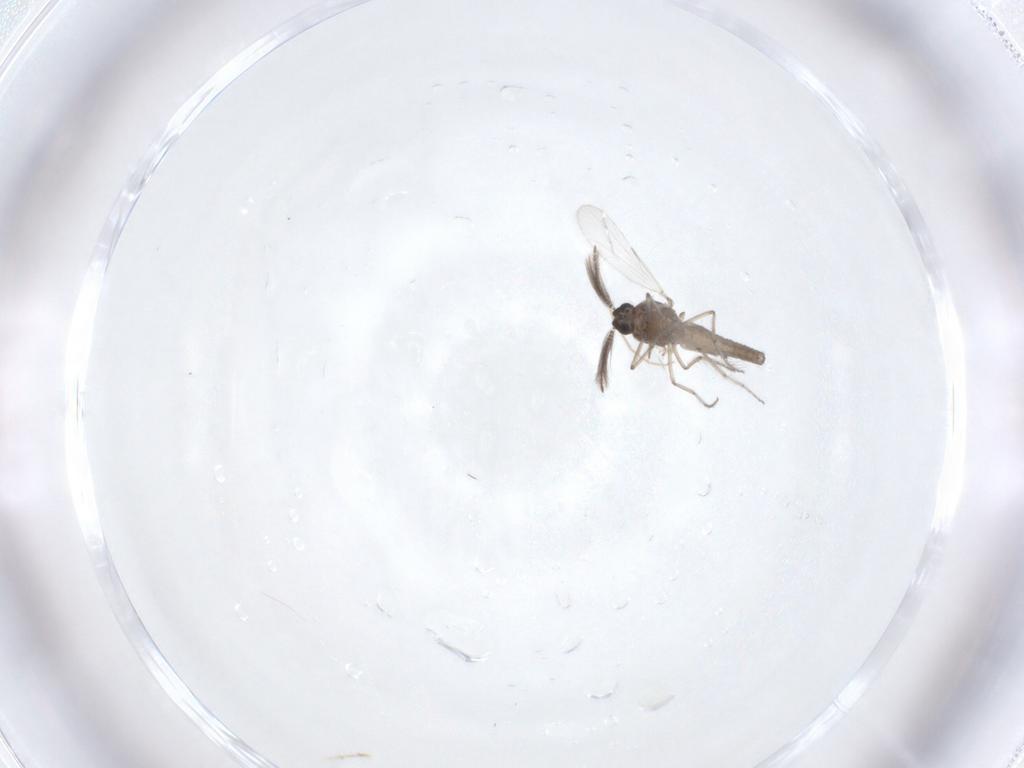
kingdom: Animalia
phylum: Arthropoda
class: Insecta
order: Diptera
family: Ceratopogonidae
